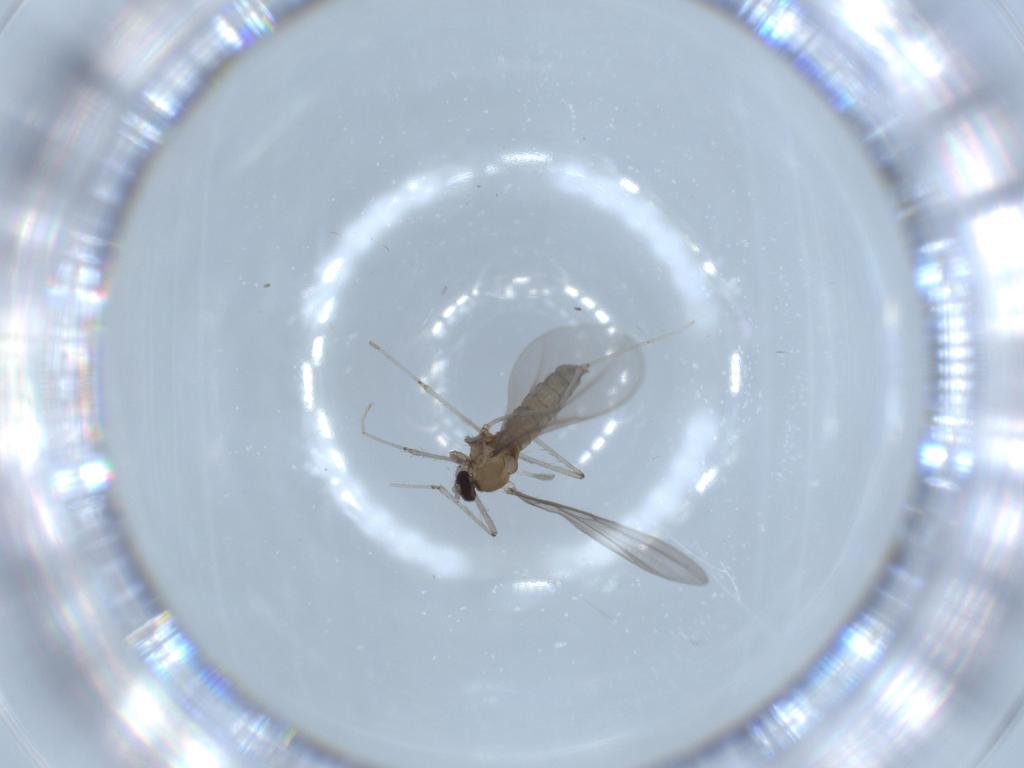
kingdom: Animalia
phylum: Arthropoda
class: Insecta
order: Diptera
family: Cecidomyiidae
